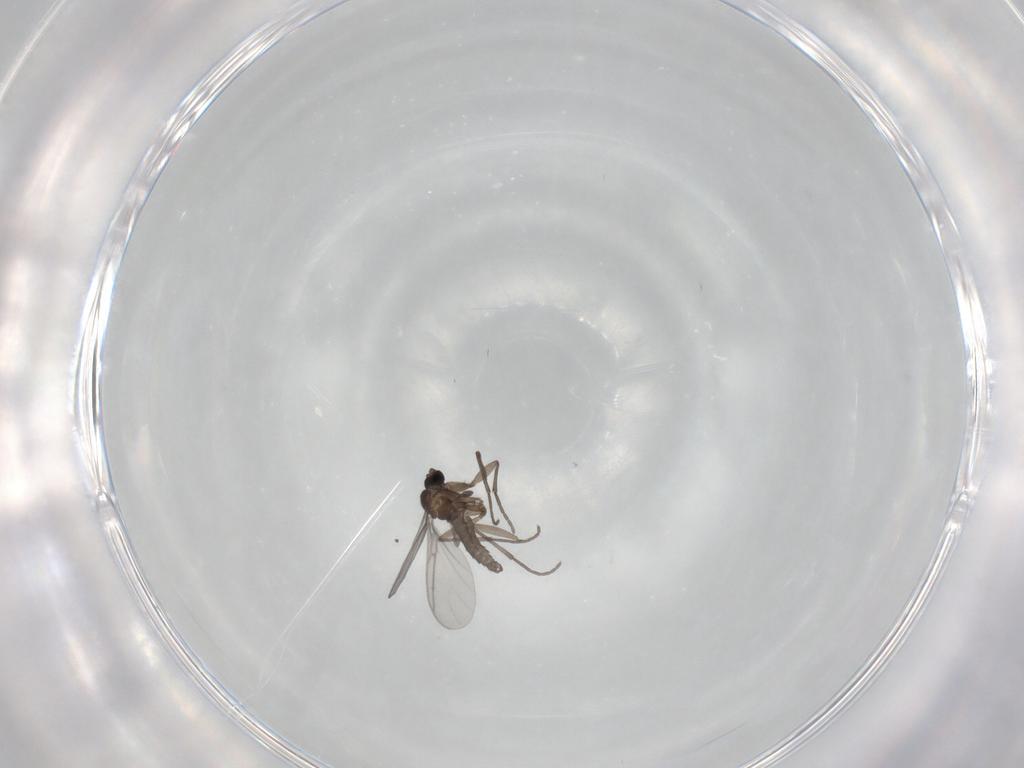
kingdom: Animalia
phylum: Arthropoda
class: Insecta
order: Diptera
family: Sciaridae
